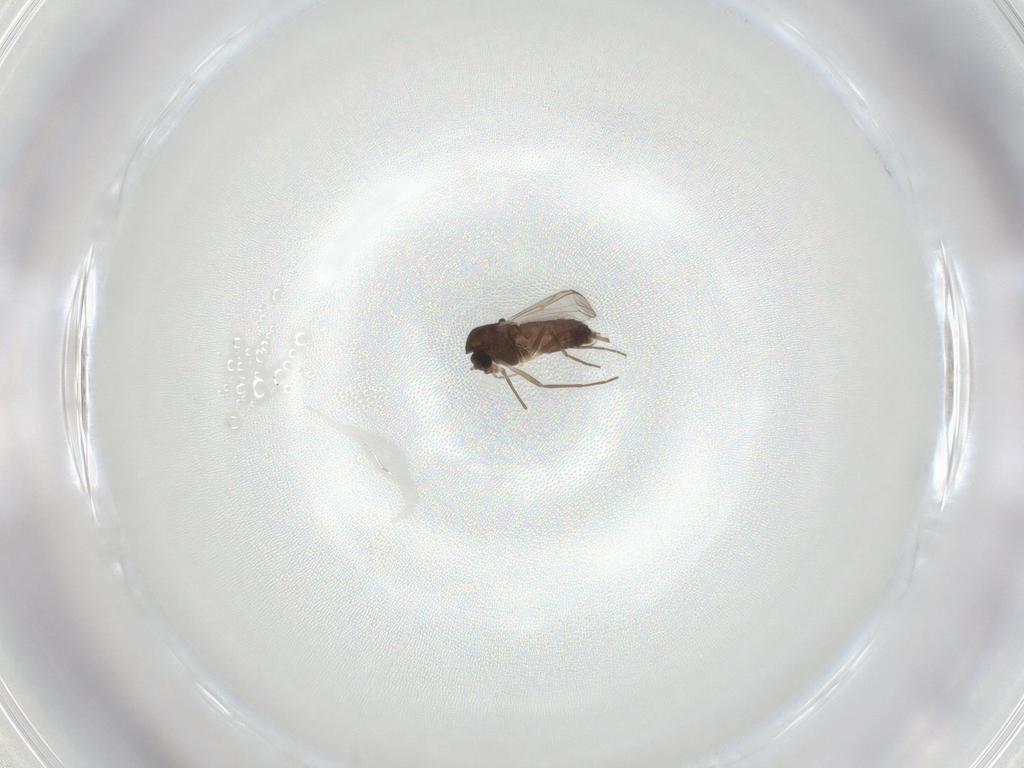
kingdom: Animalia
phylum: Arthropoda
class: Insecta
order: Diptera
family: Chironomidae
